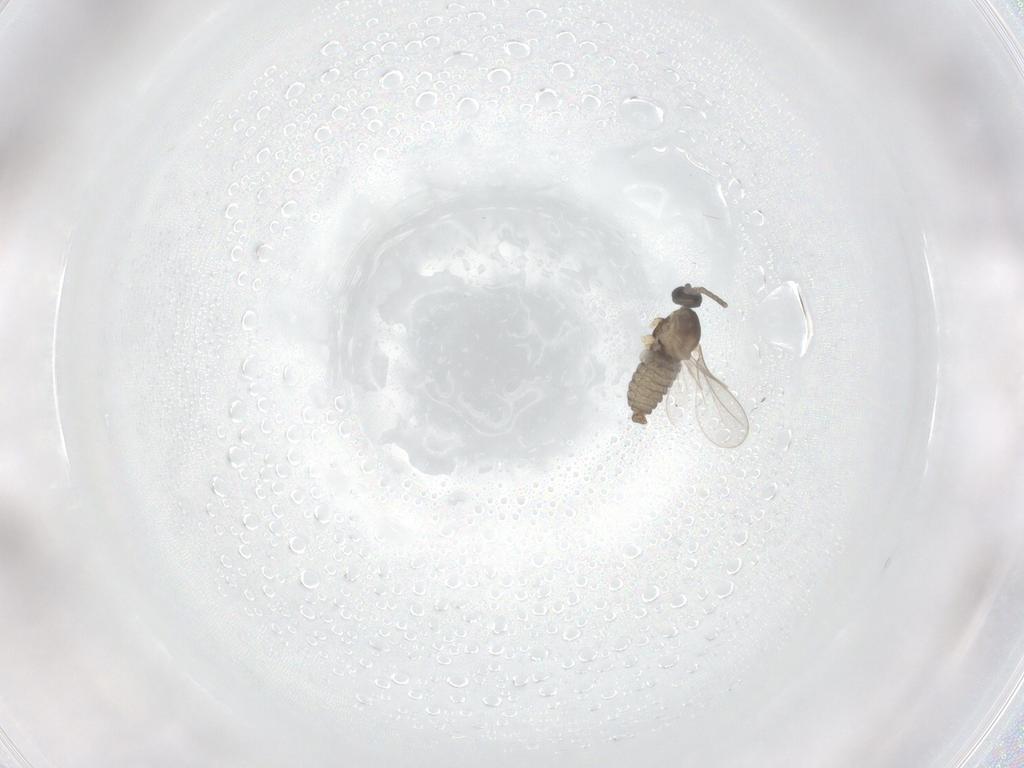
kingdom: Animalia
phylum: Arthropoda
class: Insecta
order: Diptera
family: Cecidomyiidae
